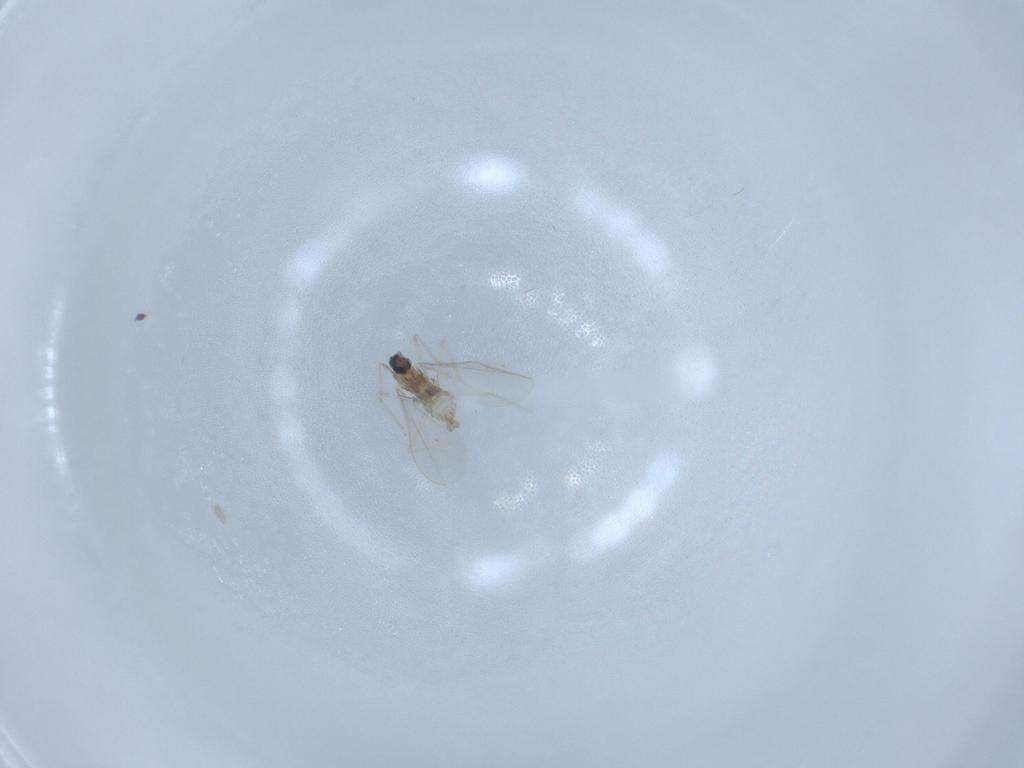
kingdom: Animalia
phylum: Arthropoda
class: Insecta
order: Diptera
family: Cecidomyiidae
